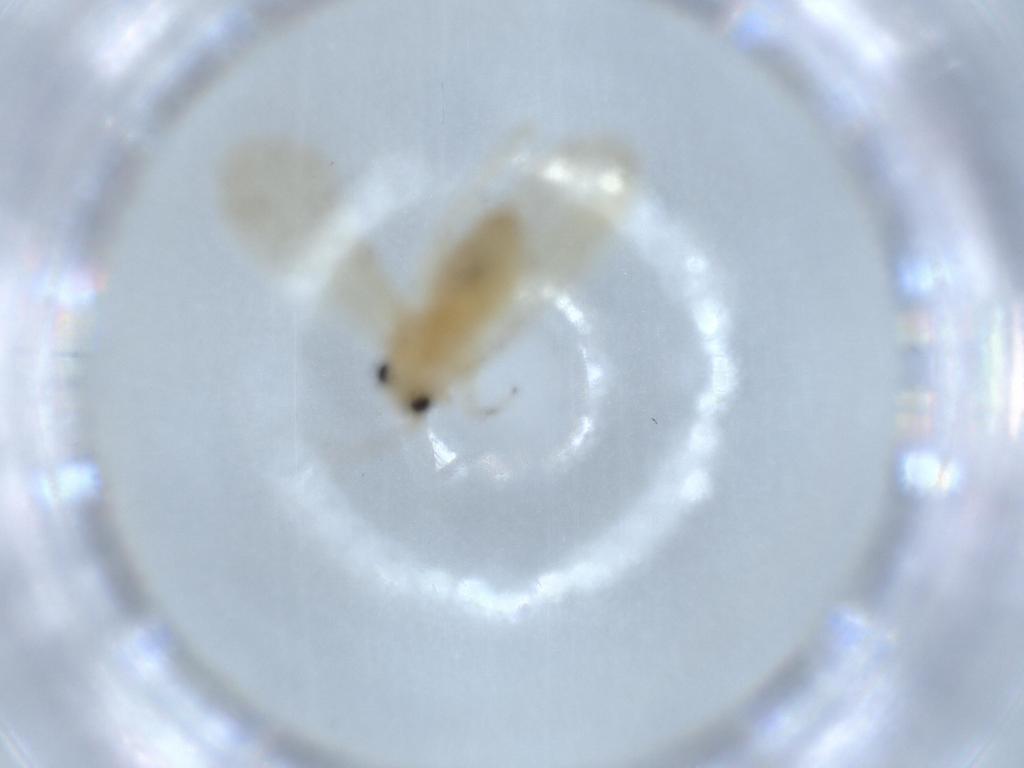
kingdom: Animalia
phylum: Arthropoda
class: Insecta
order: Psocodea
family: Caeciliusidae
